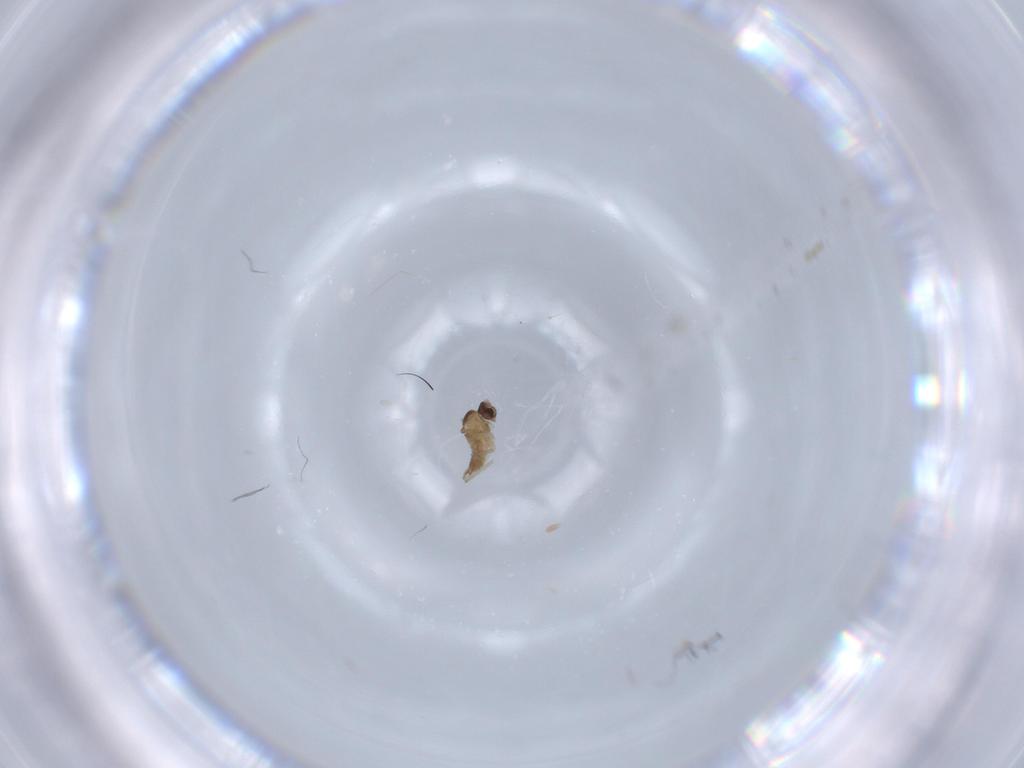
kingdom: Animalia
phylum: Arthropoda
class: Insecta
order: Diptera
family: Cecidomyiidae
